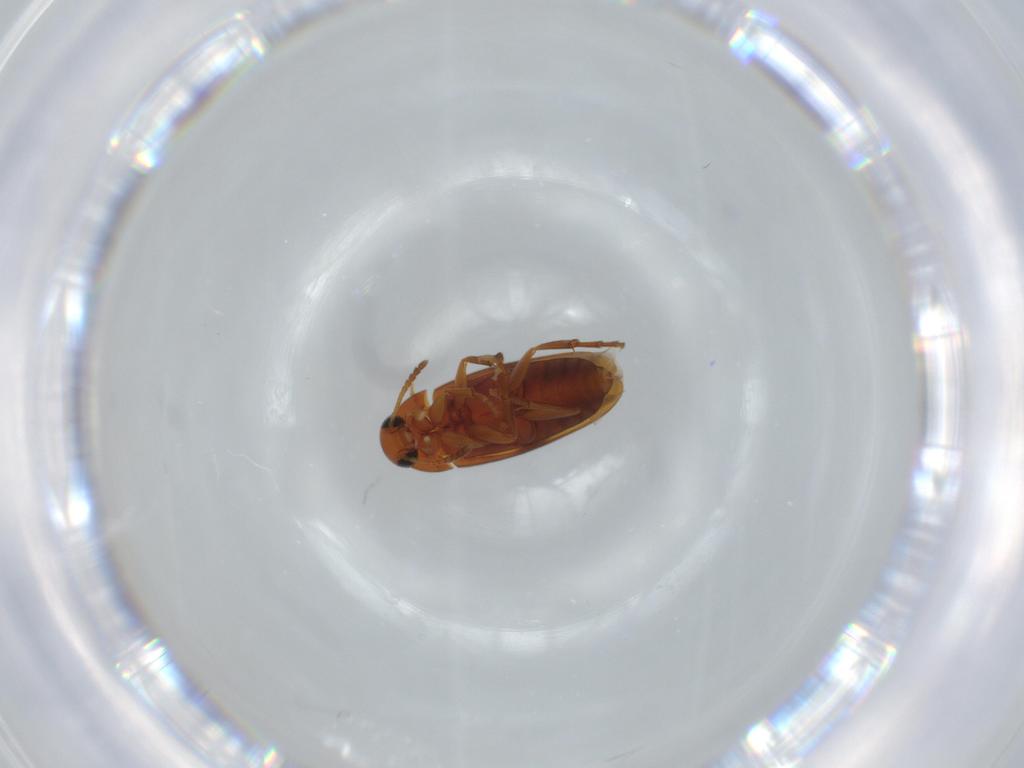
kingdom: Animalia
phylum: Arthropoda
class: Insecta
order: Coleoptera
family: Scraptiidae
